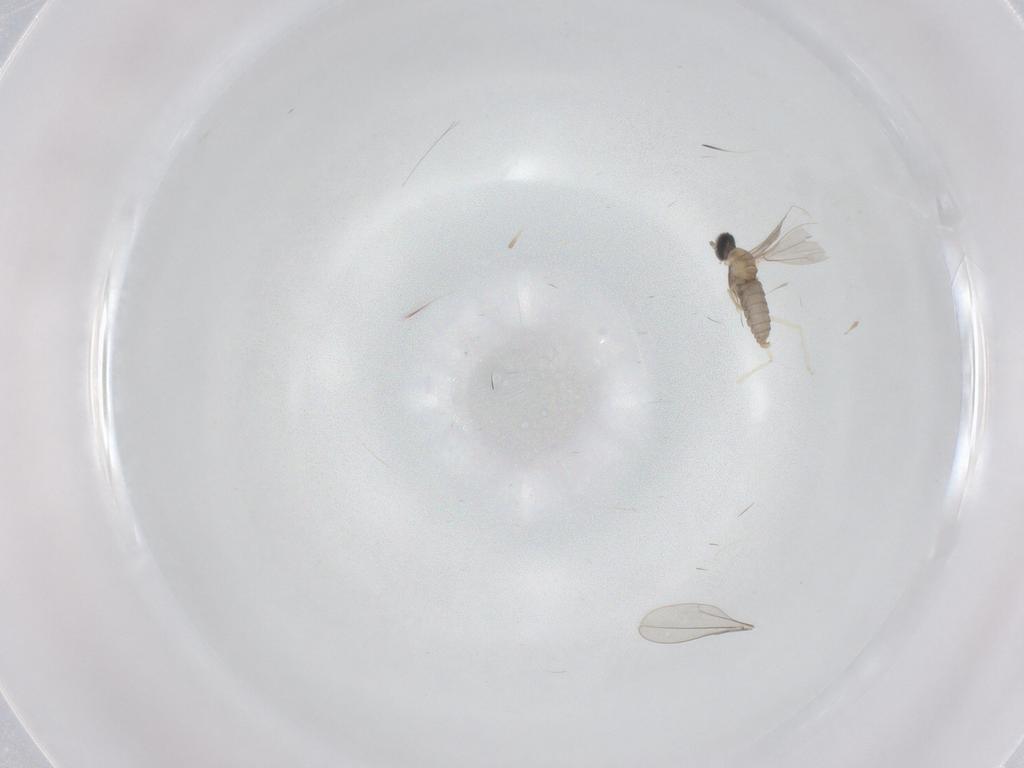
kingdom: Animalia
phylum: Arthropoda
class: Insecta
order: Diptera
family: Cecidomyiidae
